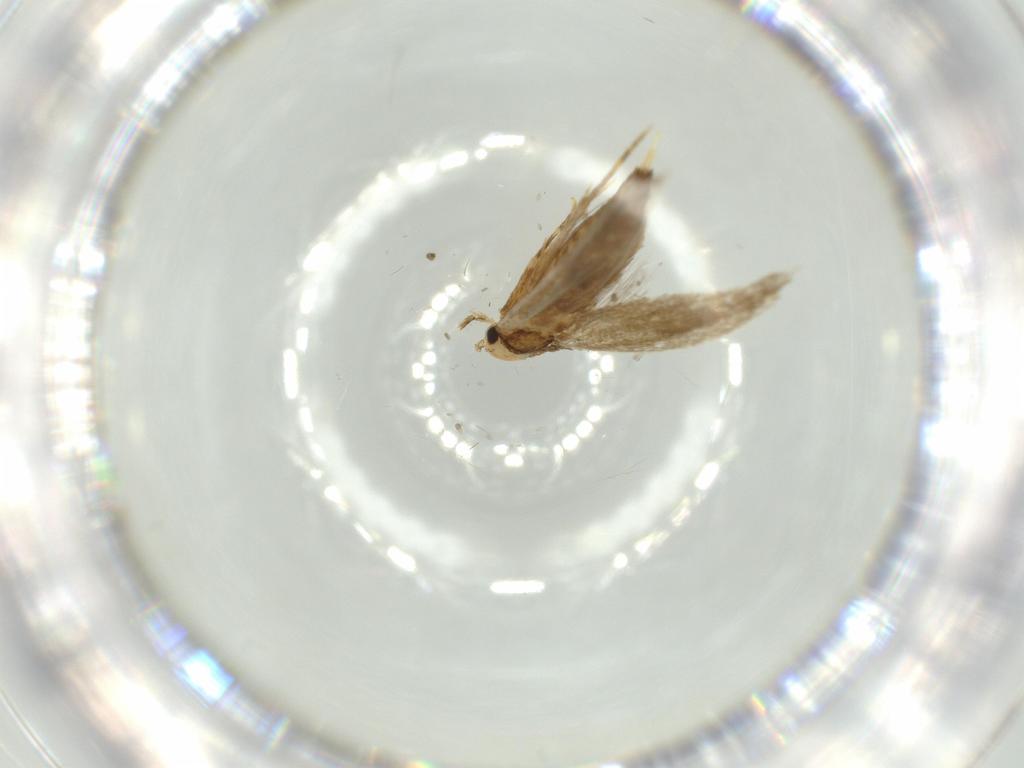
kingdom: Animalia
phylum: Arthropoda
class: Insecta
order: Lepidoptera
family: Tineidae
